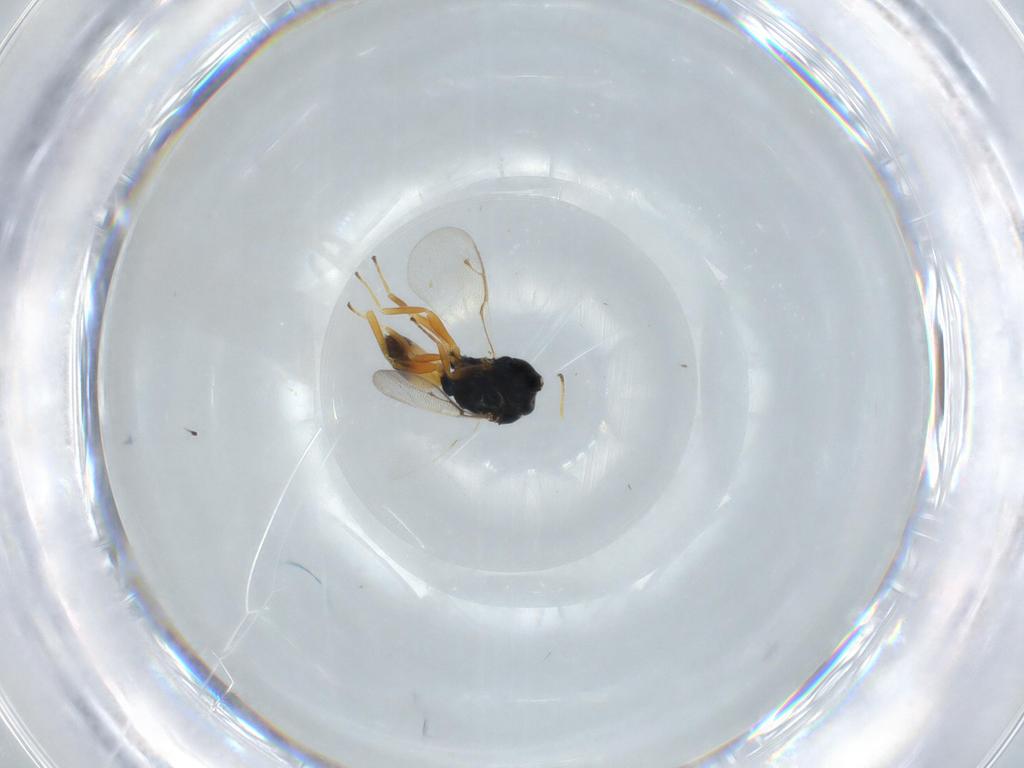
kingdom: Animalia
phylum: Arthropoda
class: Insecta
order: Hymenoptera
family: Pteromalidae
